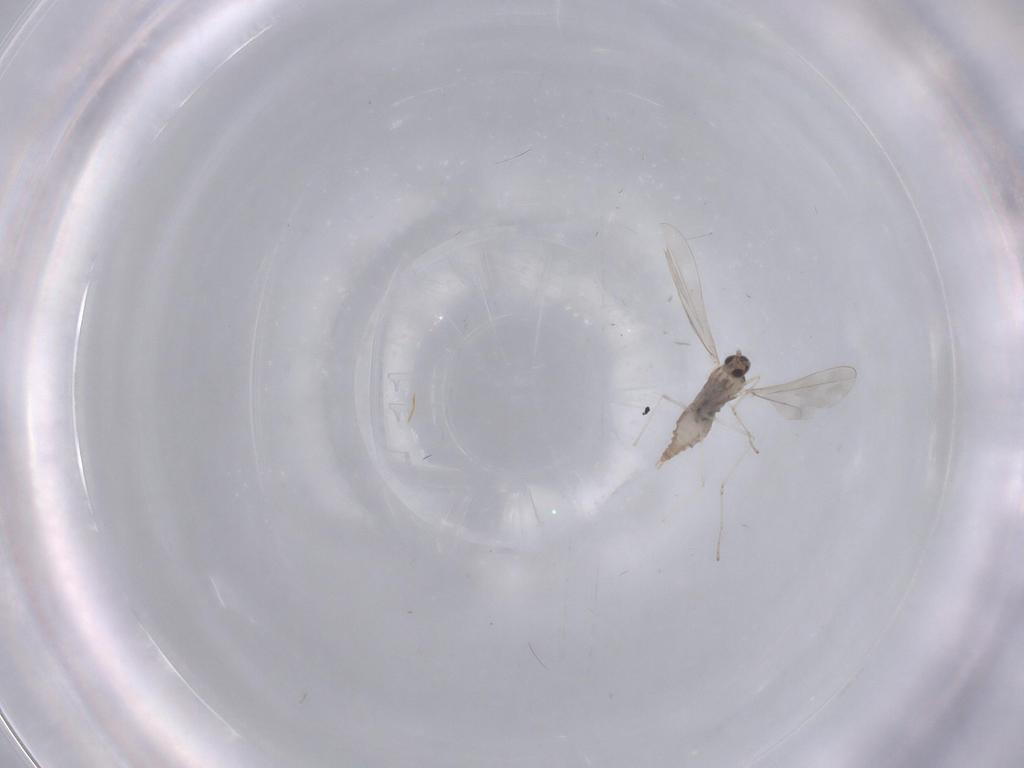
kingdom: Animalia
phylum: Arthropoda
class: Insecta
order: Diptera
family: Cecidomyiidae
